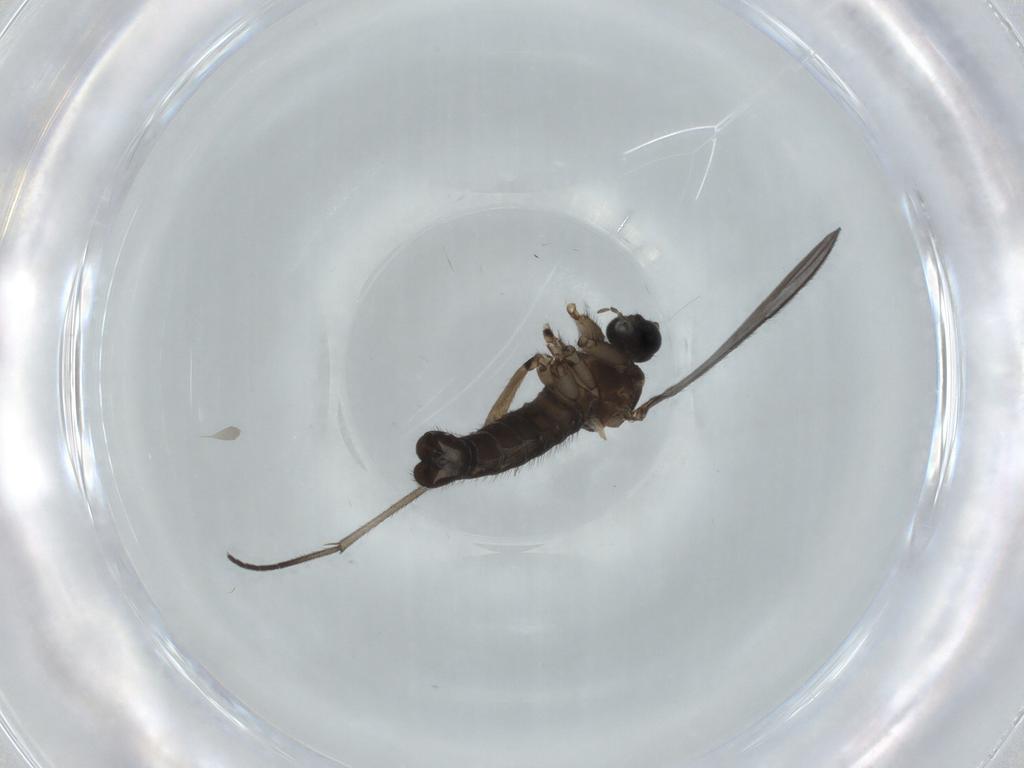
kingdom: Animalia
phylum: Arthropoda
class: Insecta
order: Diptera
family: Sciaridae
